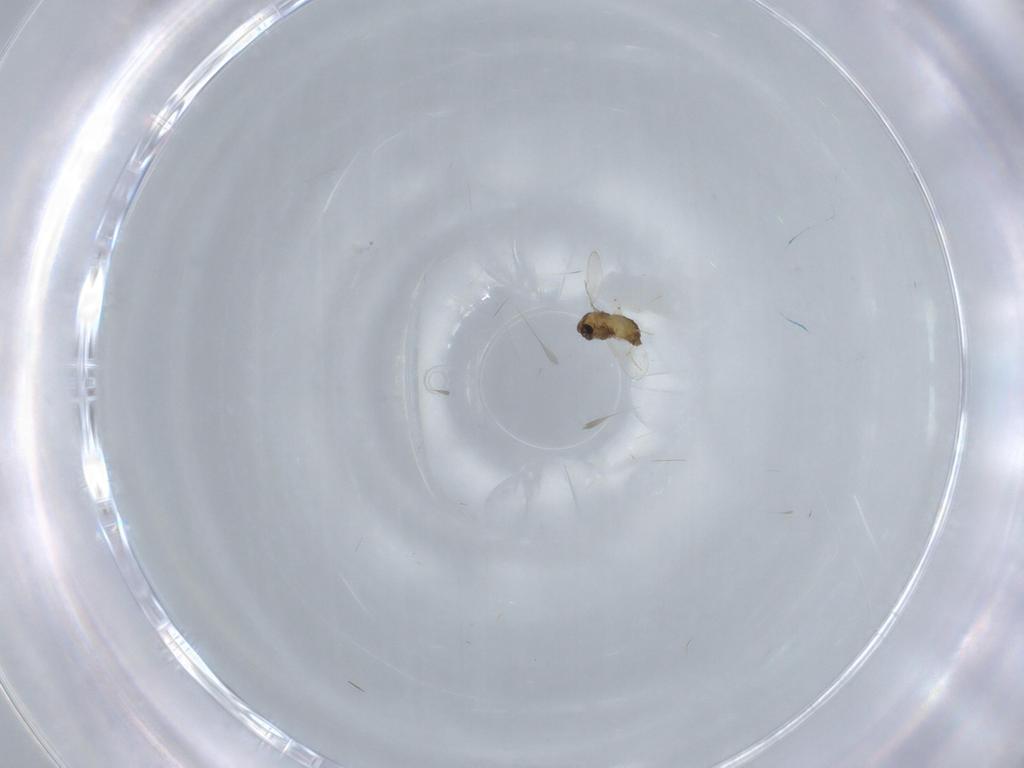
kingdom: Animalia
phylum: Arthropoda
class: Insecta
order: Diptera
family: Chironomidae
